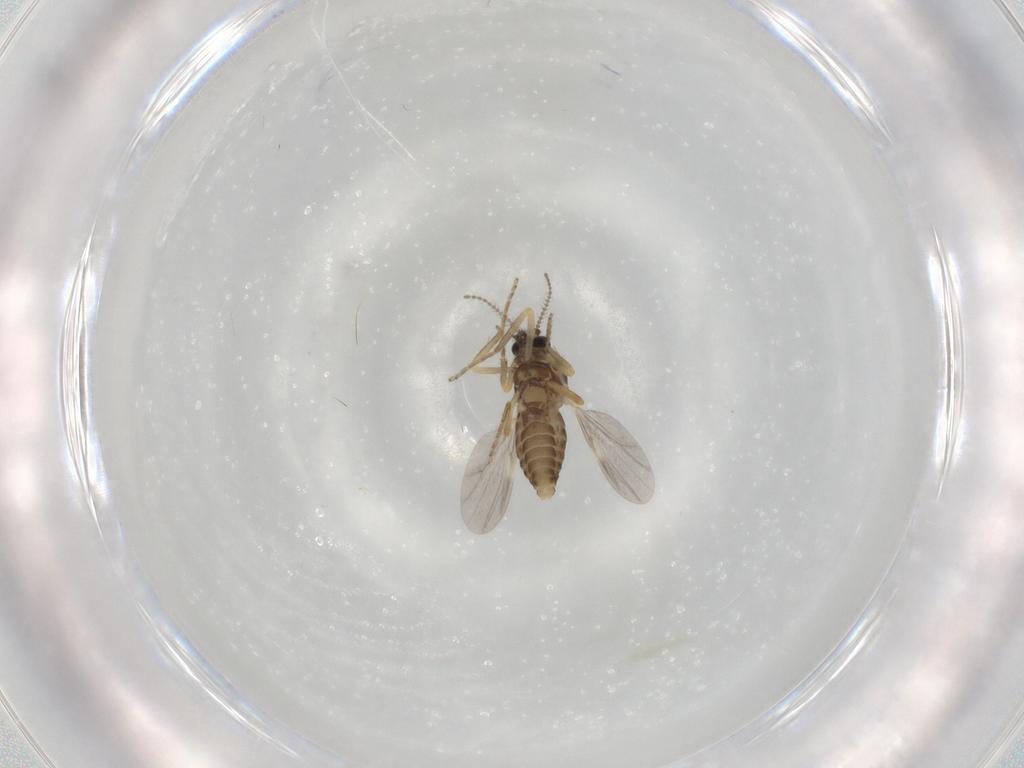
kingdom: Animalia
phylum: Arthropoda
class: Insecta
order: Diptera
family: Ceratopogonidae
